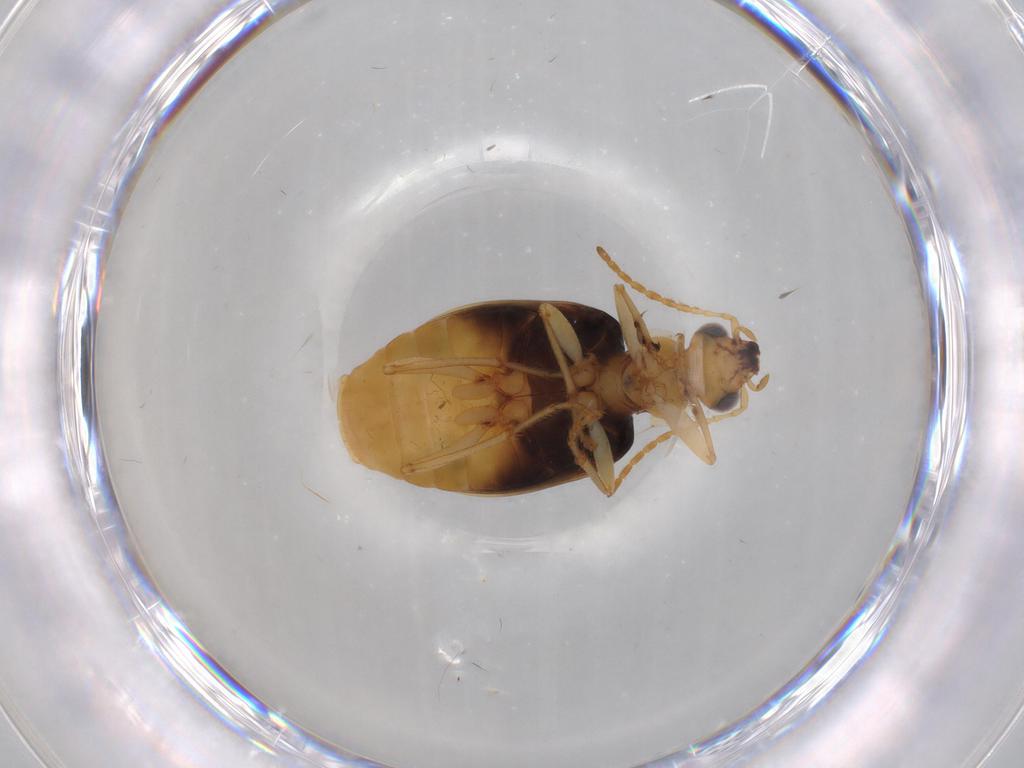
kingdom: Animalia
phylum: Arthropoda
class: Insecta
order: Coleoptera
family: Carabidae
